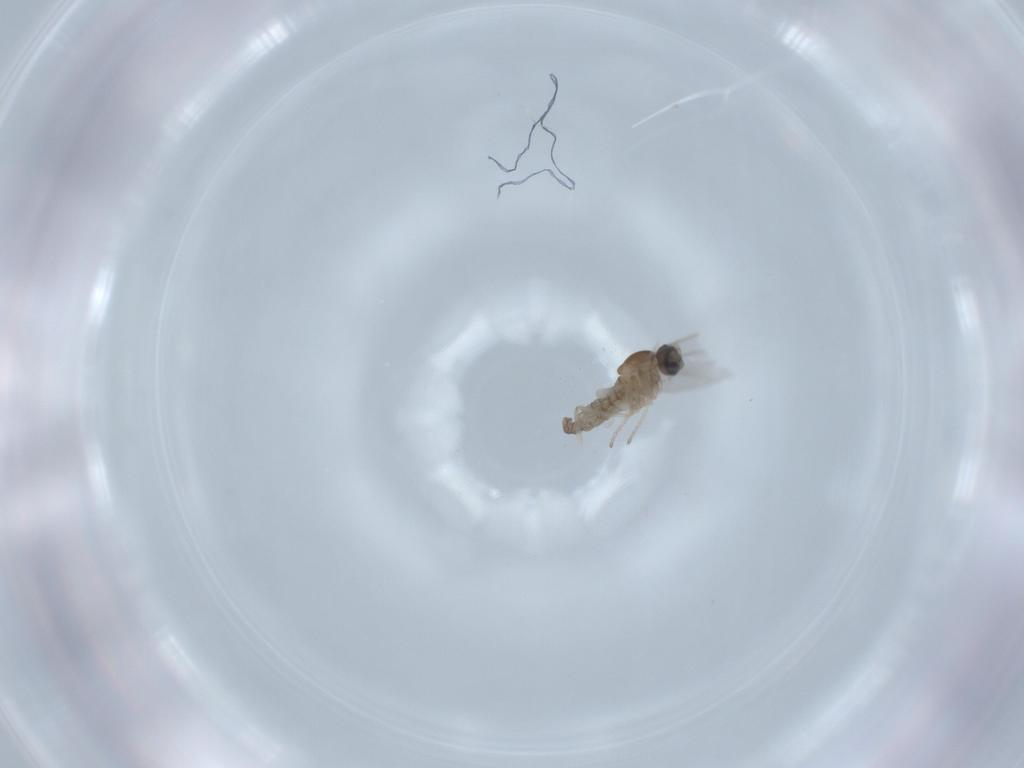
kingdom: Animalia
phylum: Arthropoda
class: Insecta
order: Diptera
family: Cecidomyiidae
